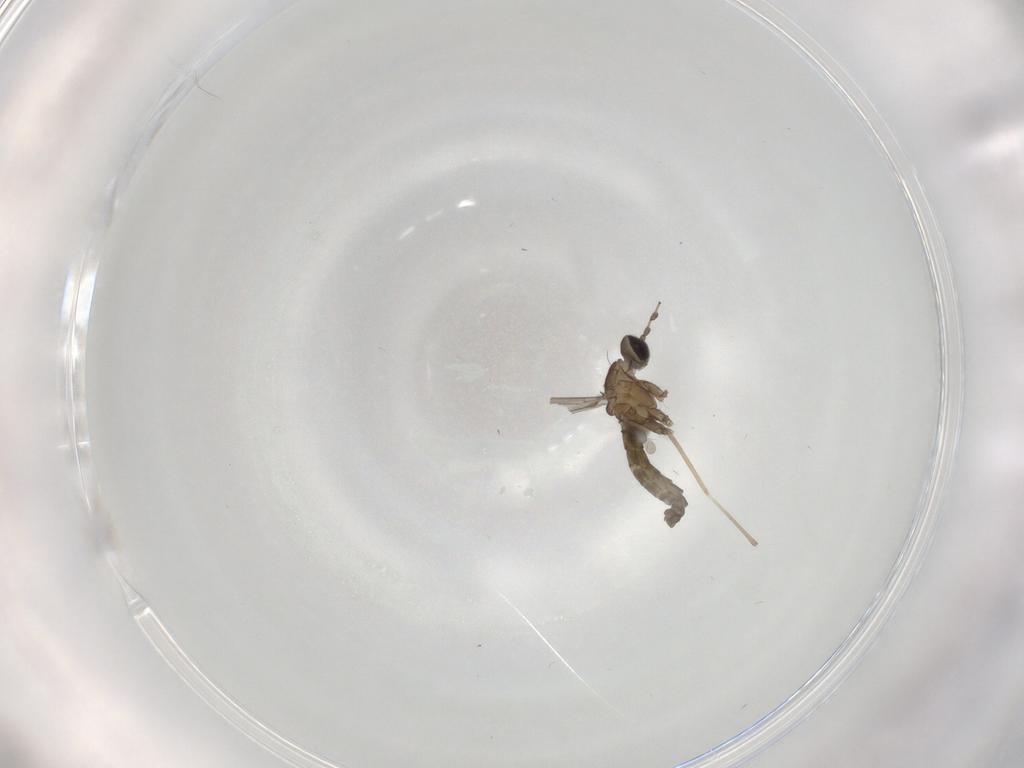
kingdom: Animalia
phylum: Arthropoda
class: Insecta
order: Diptera
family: Stratiomyidae
